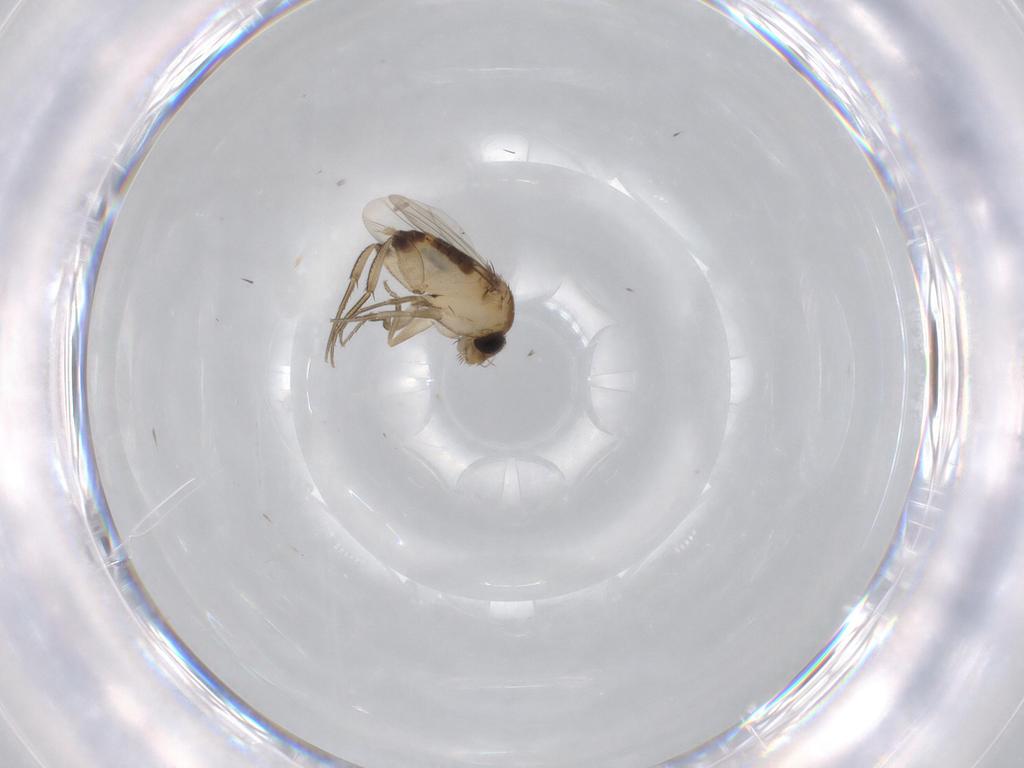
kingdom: Animalia
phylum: Arthropoda
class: Insecta
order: Diptera
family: Phoridae
